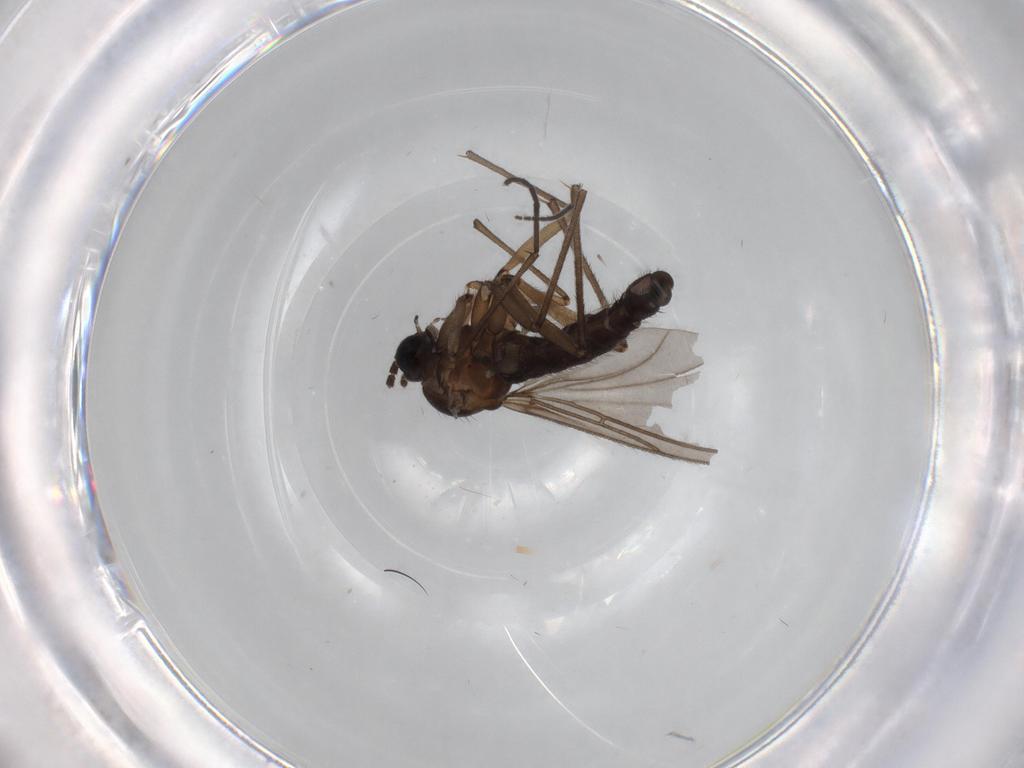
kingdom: Animalia
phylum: Arthropoda
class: Insecta
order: Diptera
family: Sciaridae
